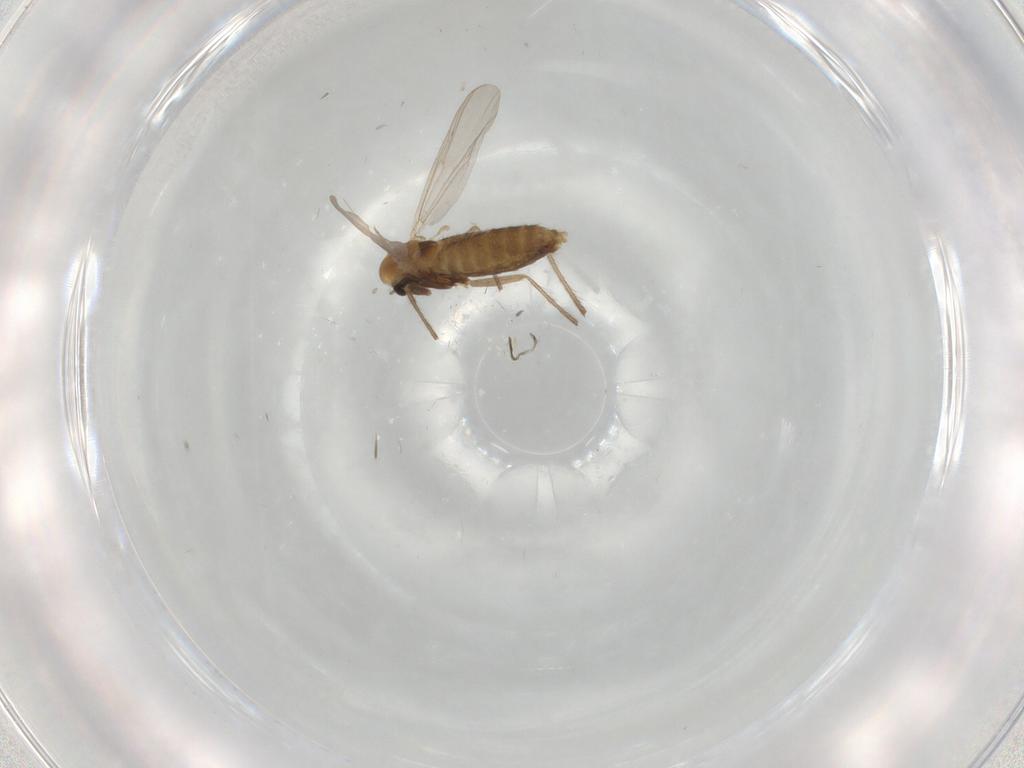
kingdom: Animalia
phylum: Arthropoda
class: Insecta
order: Diptera
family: Chironomidae
